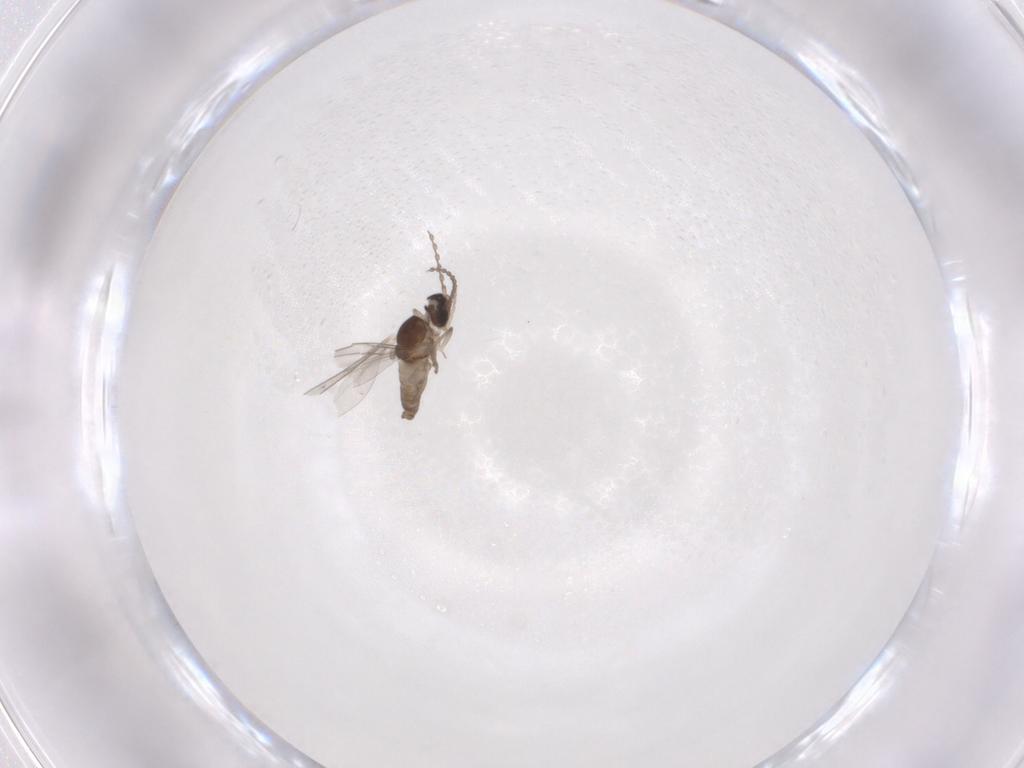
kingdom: Animalia
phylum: Arthropoda
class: Insecta
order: Diptera
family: Cecidomyiidae
